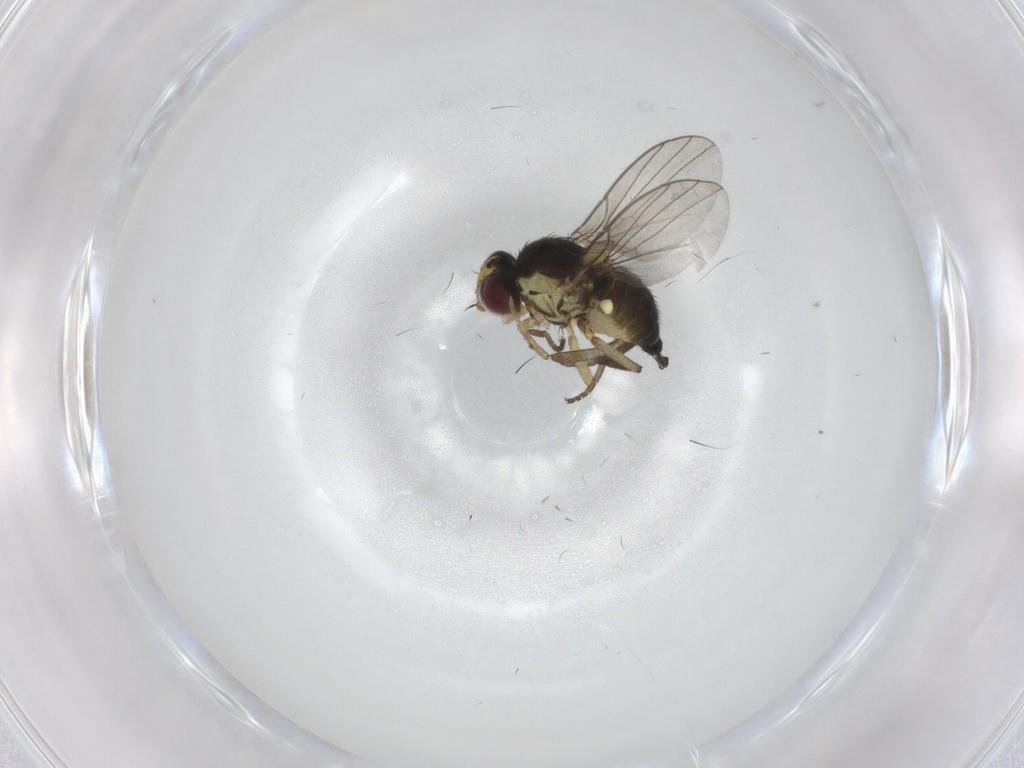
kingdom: Animalia
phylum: Arthropoda
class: Insecta
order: Diptera
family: Agromyzidae
